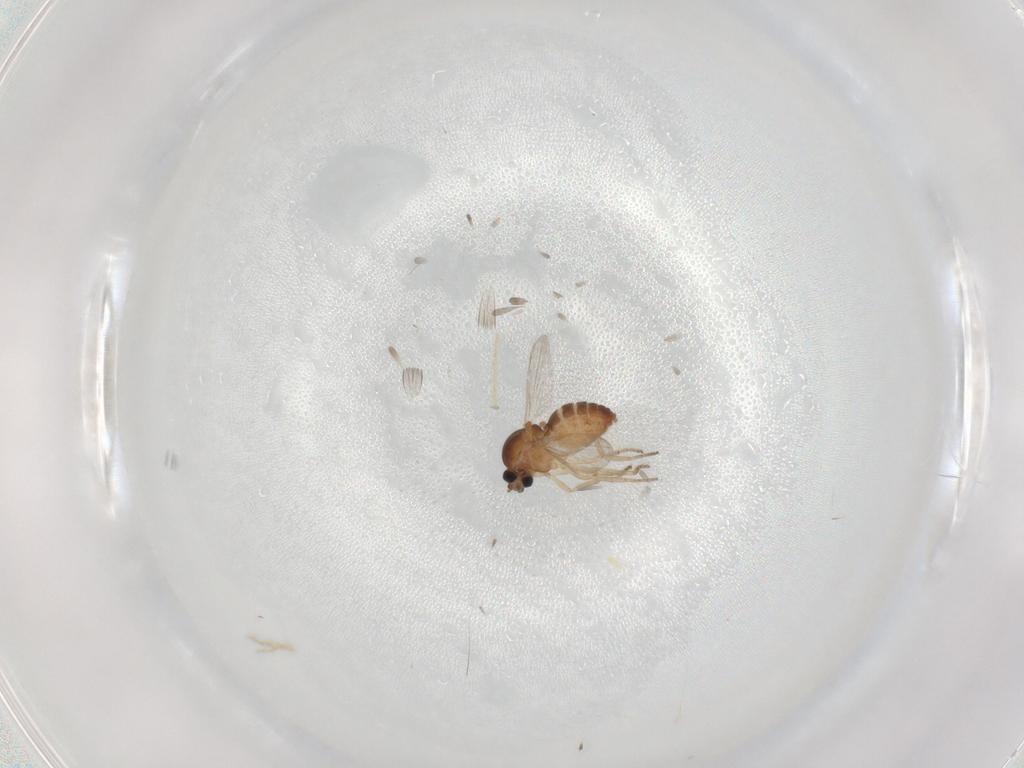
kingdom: Animalia
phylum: Arthropoda
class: Insecta
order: Diptera
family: Ceratopogonidae
